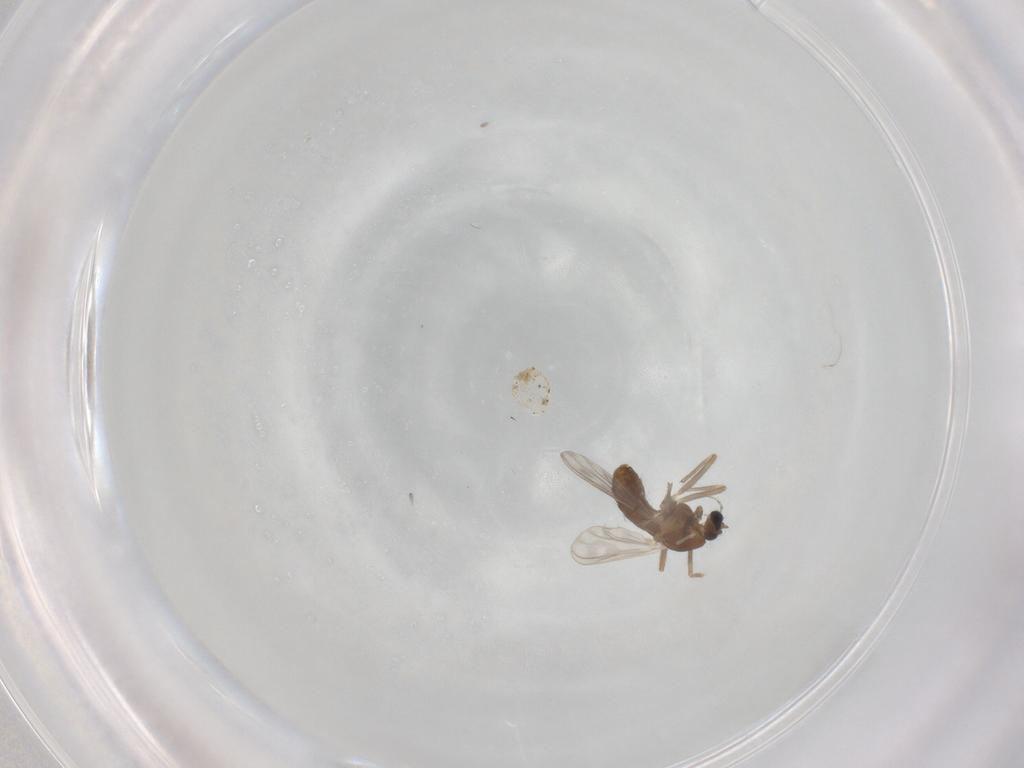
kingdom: Animalia
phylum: Arthropoda
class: Insecta
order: Diptera
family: Chironomidae
